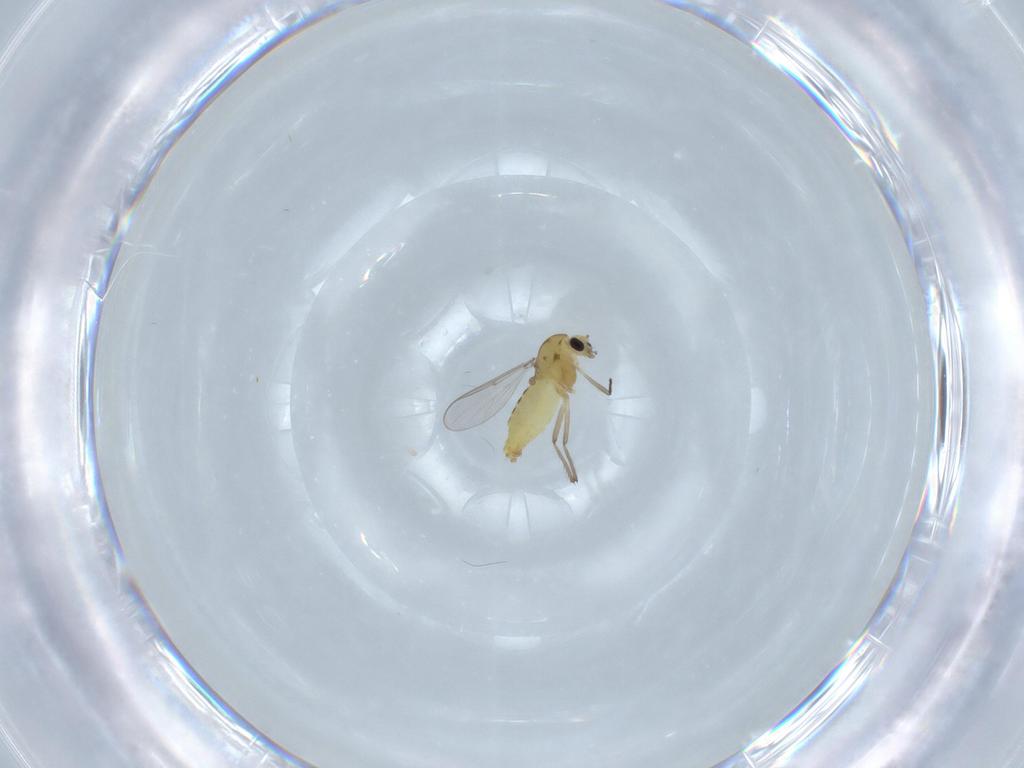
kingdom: Animalia
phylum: Arthropoda
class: Insecta
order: Diptera
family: Chironomidae
